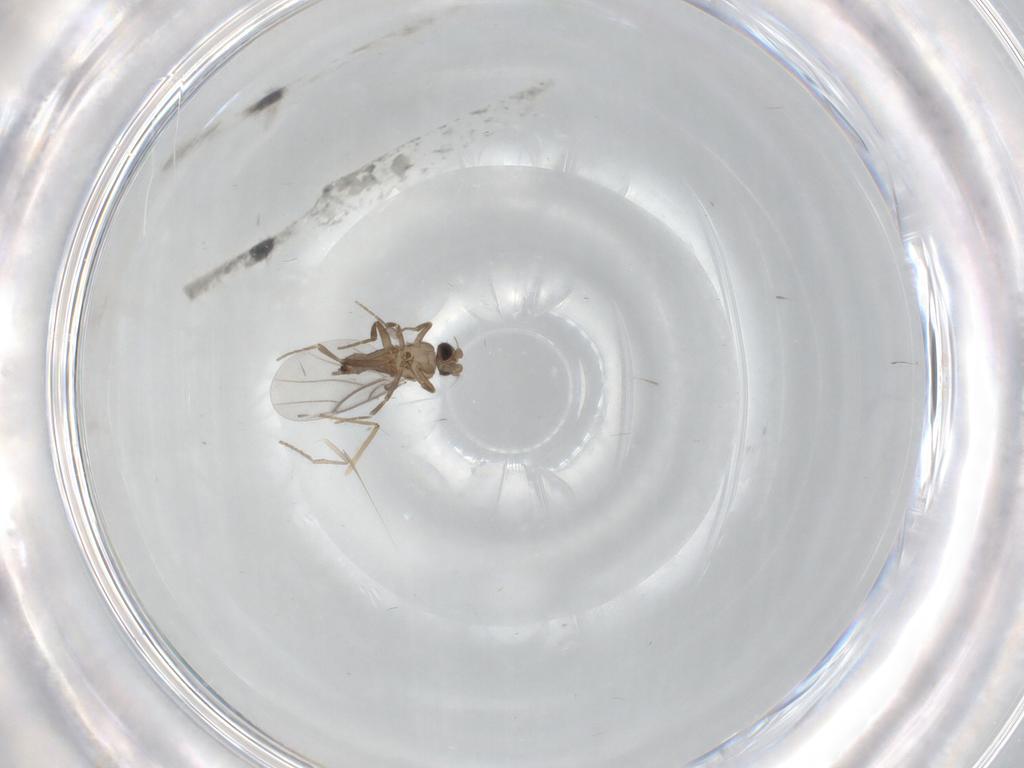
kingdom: Animalia
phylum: Arthropoda
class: Insecta
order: Diptera
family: Psychodidae
